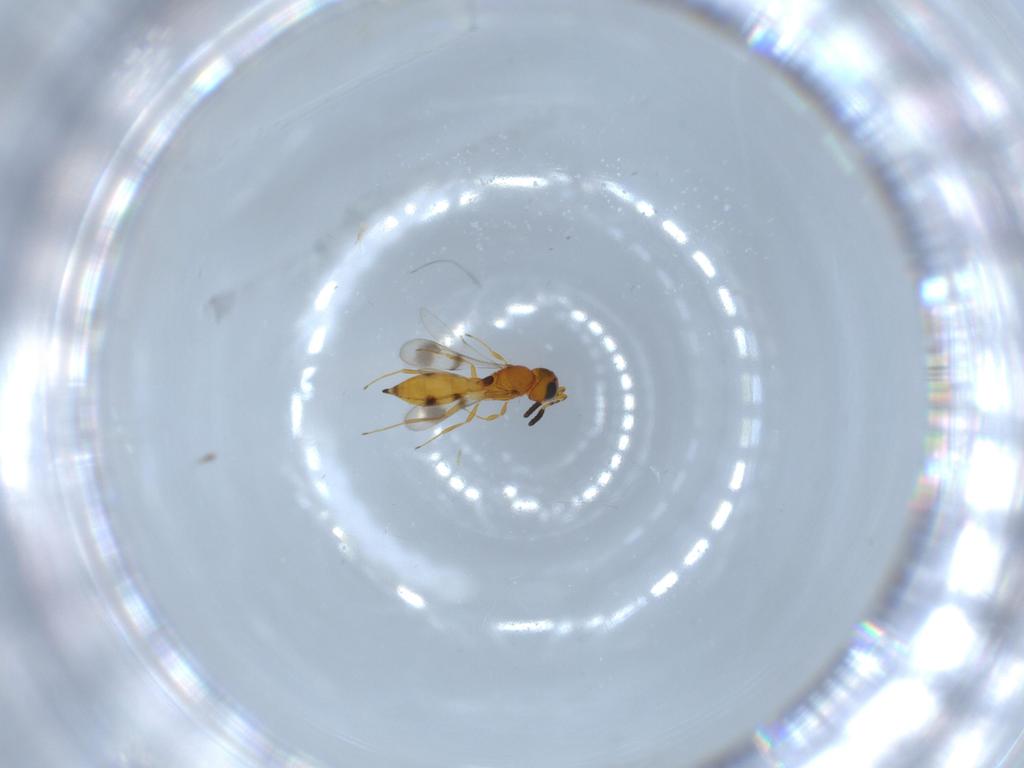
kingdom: Animalia
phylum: Arthropoda
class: Insecta
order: Hymenoptera
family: Scelionidae
